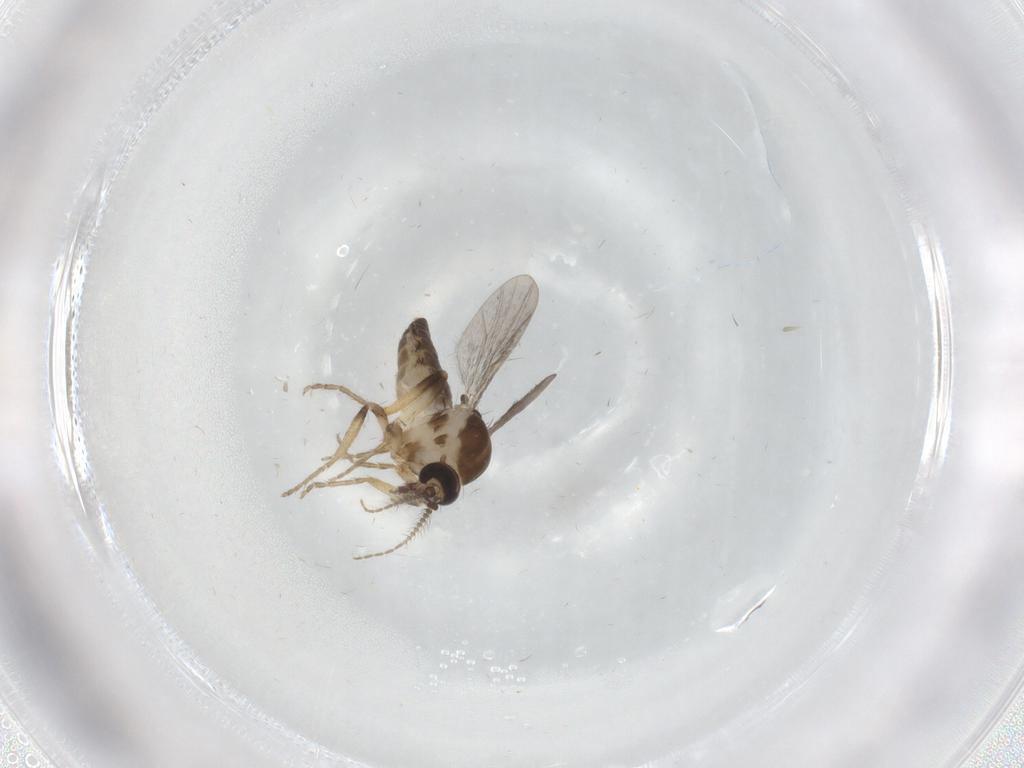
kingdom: Animalia
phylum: Arthropoda
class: Insecta
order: Diptera
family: Ceratopogonidae
